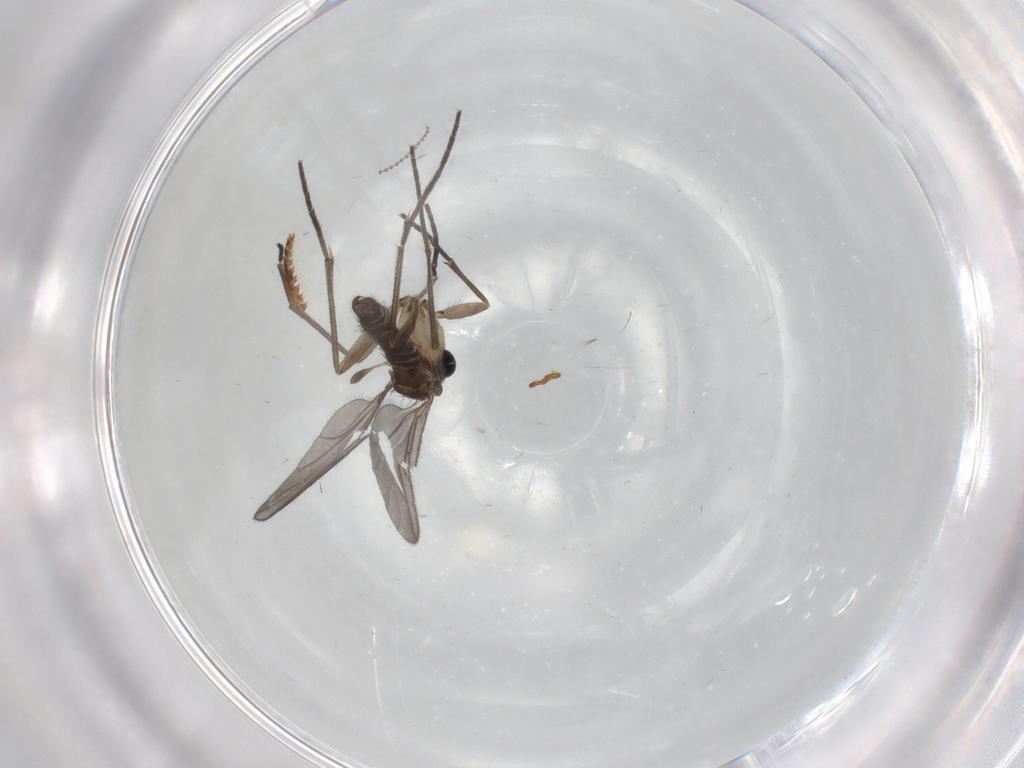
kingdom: Animalia
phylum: Arthropoda
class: Insecta
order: Diptera
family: Sciaridae
